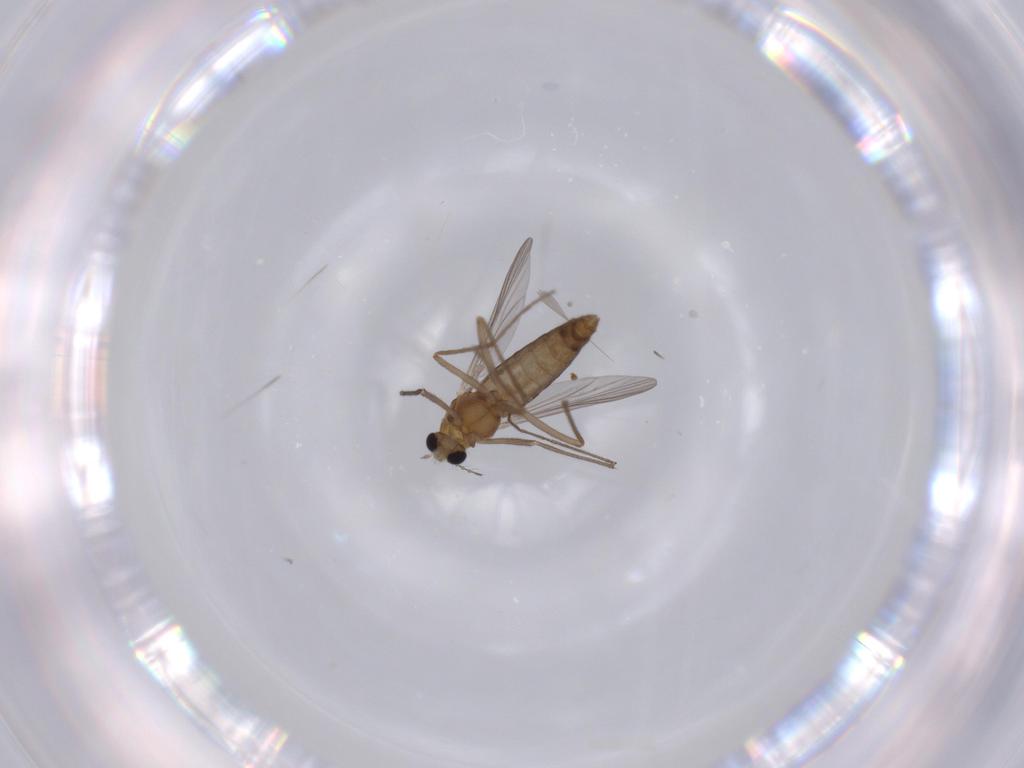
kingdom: Animalia
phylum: Arthropoda
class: Insecta
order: Diptera
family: Chironomidae
